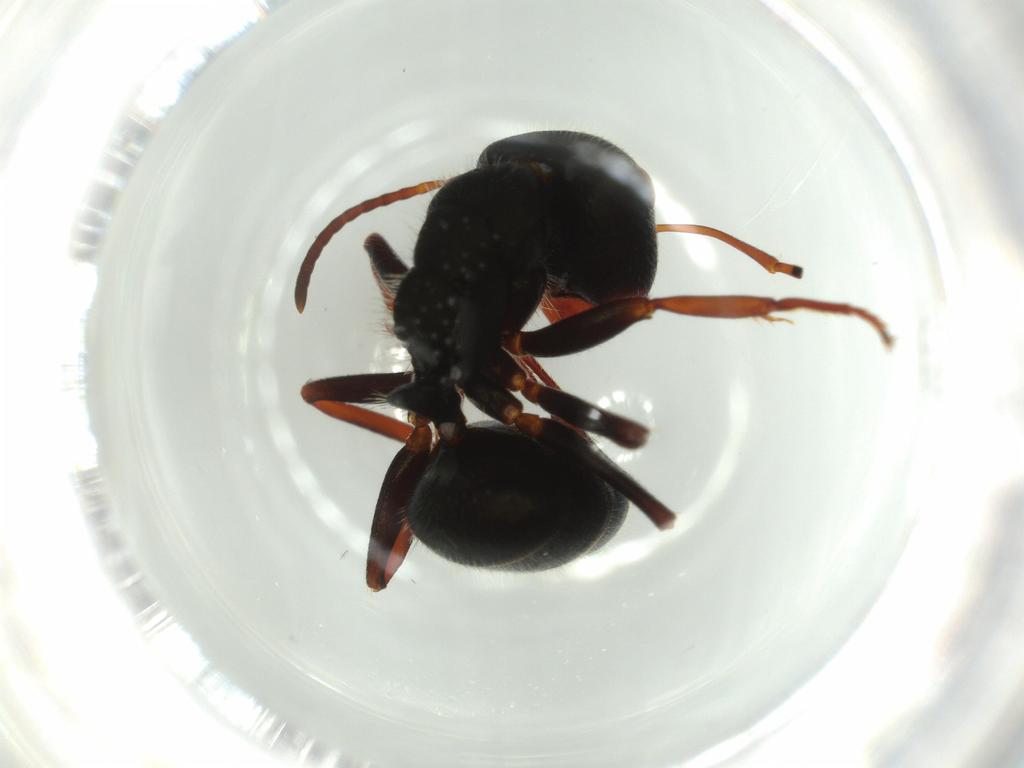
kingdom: Animalia
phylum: Arthropoda
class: Insecta
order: Hymenoptera
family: Formicidae
